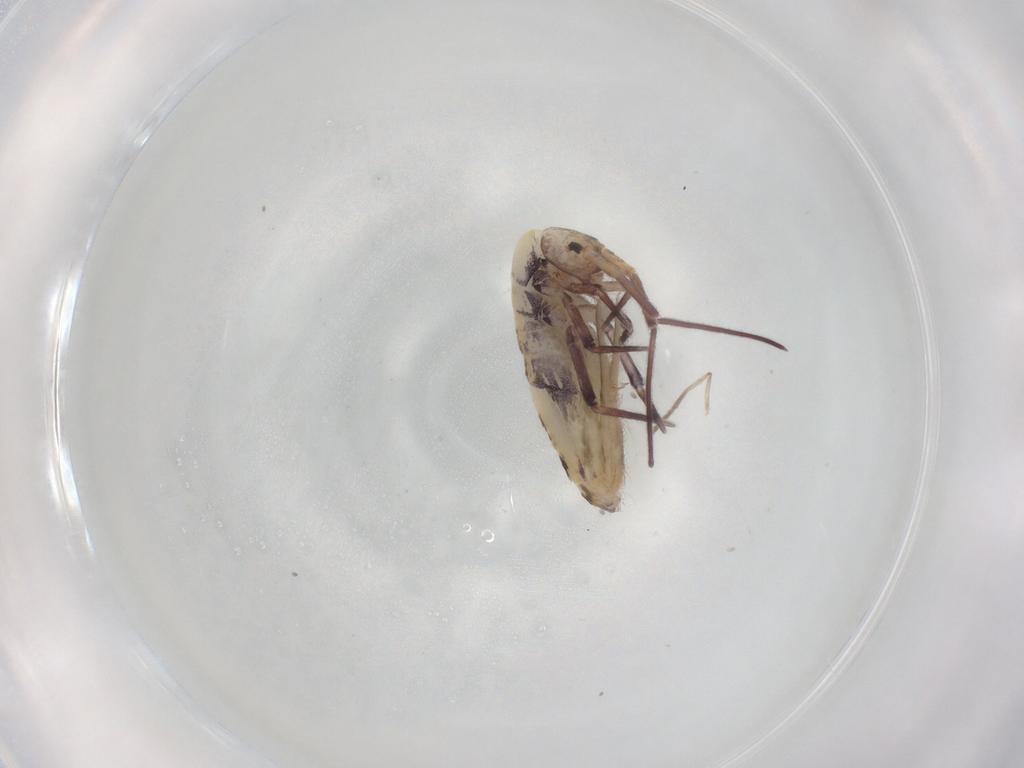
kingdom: Animalia
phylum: Arthropoda
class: Collembola
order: Entomobryomorpha
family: Entomobryidae
